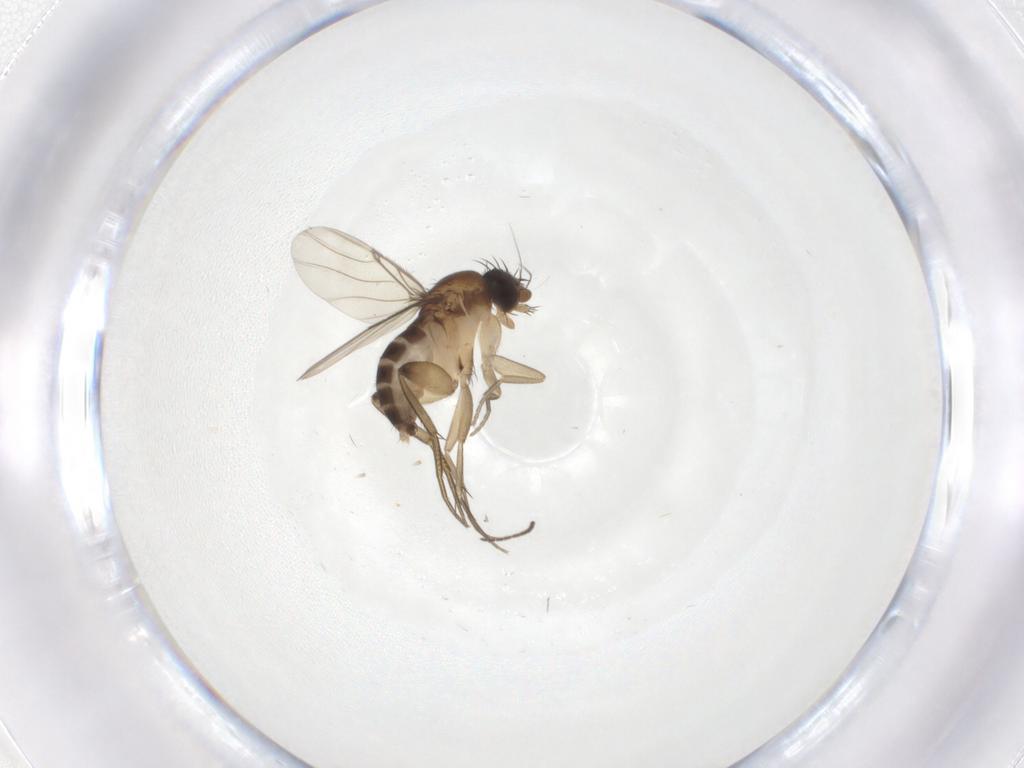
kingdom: Animalia
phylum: Arthropoda
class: Insecta
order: Diptera
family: Phoridae
